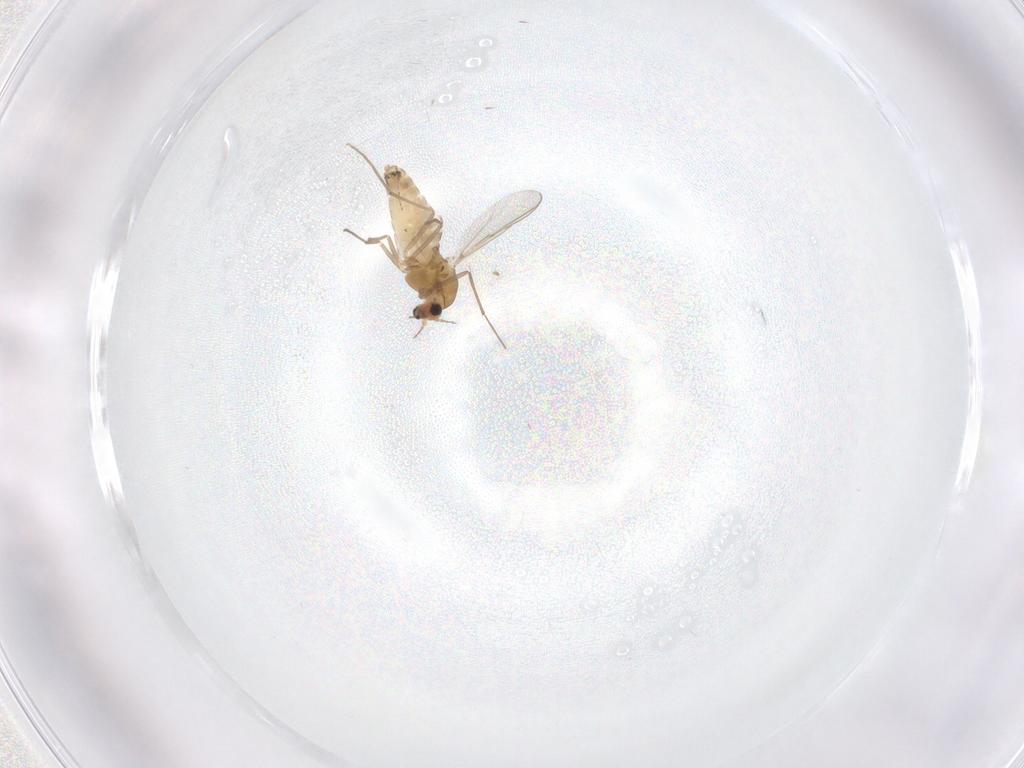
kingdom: Animalia
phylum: Arthropoda
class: Insecta
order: Diptera
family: Chironomidae
